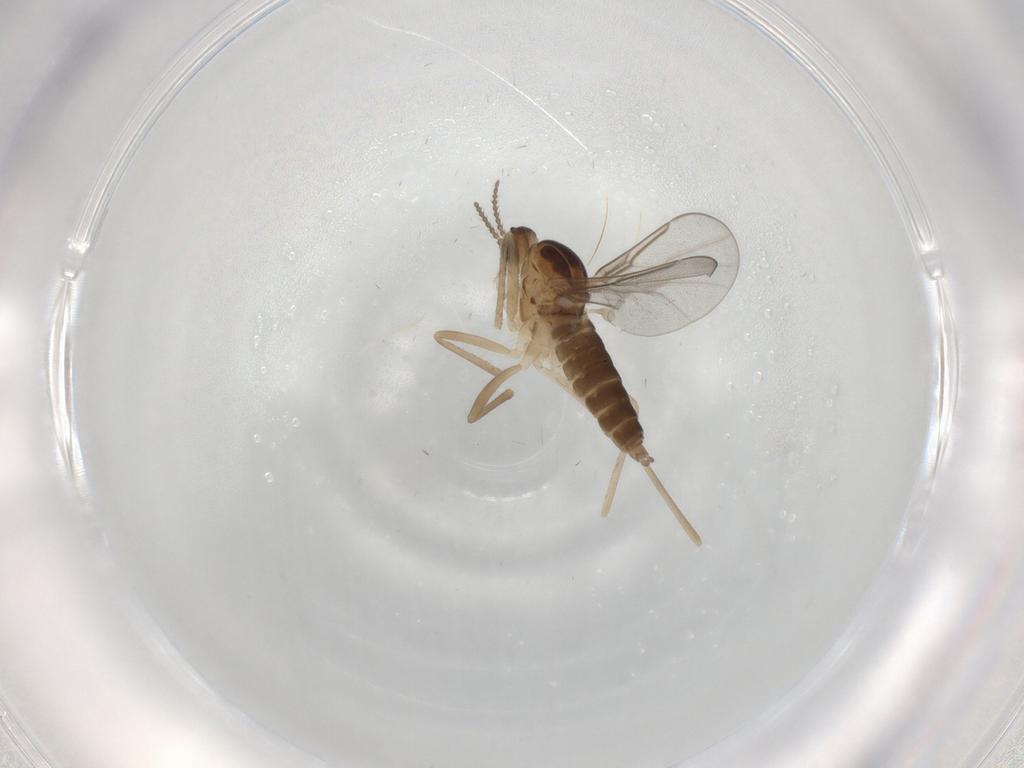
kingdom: Animalia
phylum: Arthropoda
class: Insecta
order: Diptera
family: Cecidomyiidae
